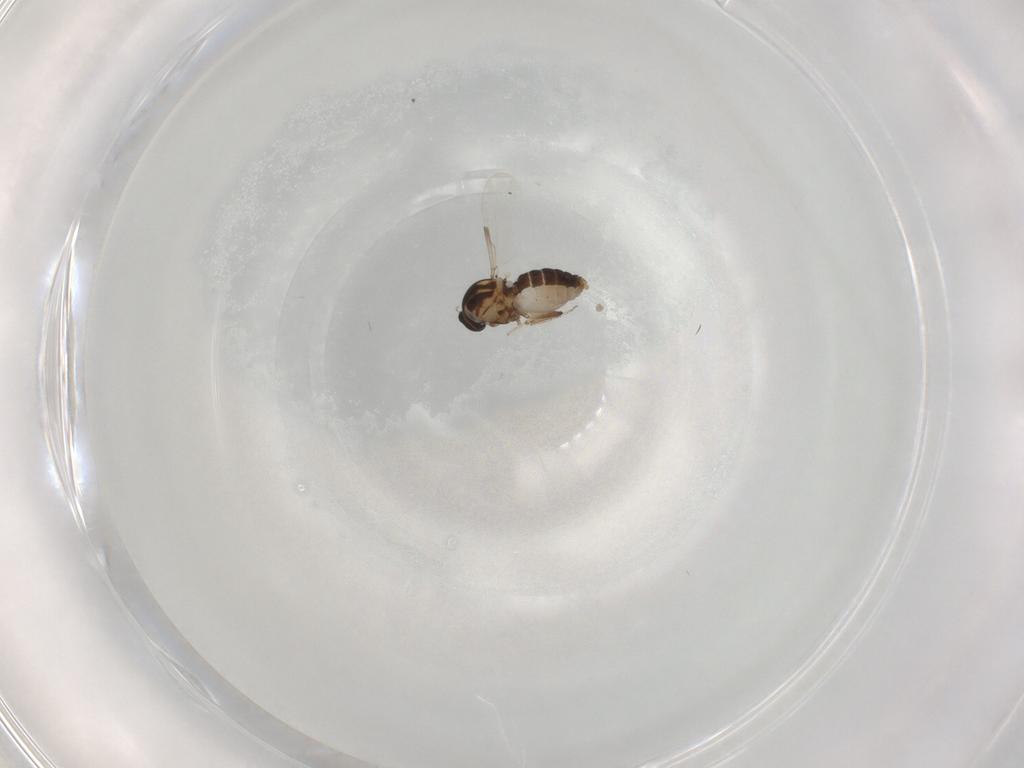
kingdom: Animalia
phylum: Arthropoda
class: Insecta
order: Diptera
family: Ceratopogonidae
